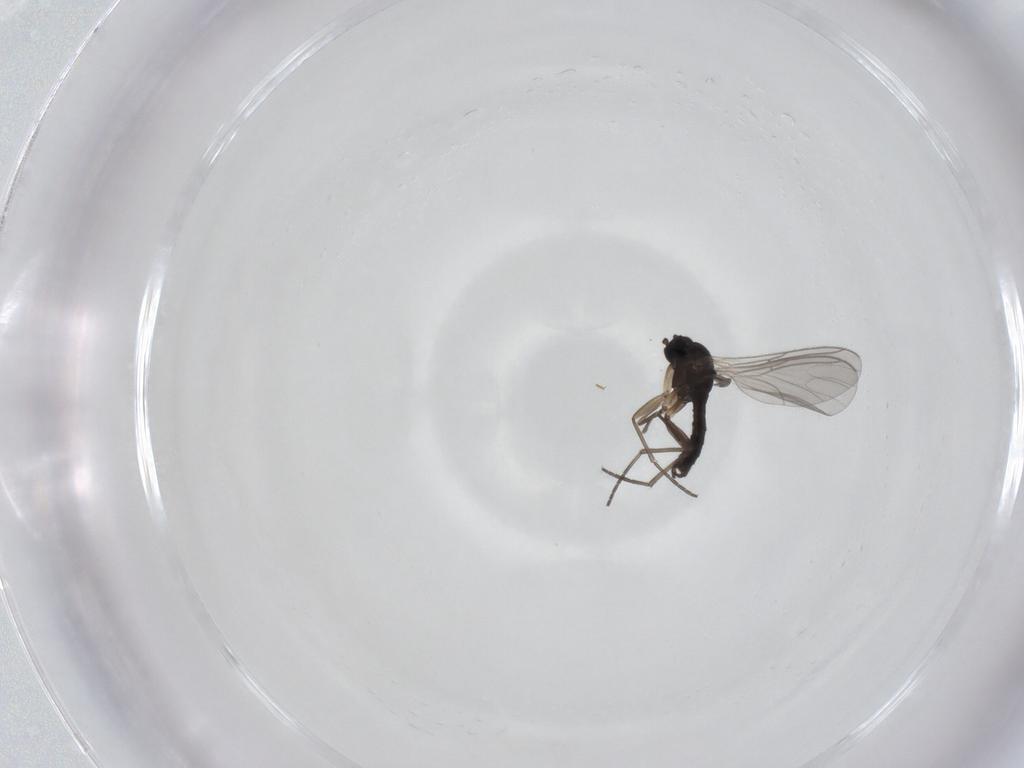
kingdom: Animalia
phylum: Arthropoda
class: Insecta
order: Diptera
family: Sciaridae
